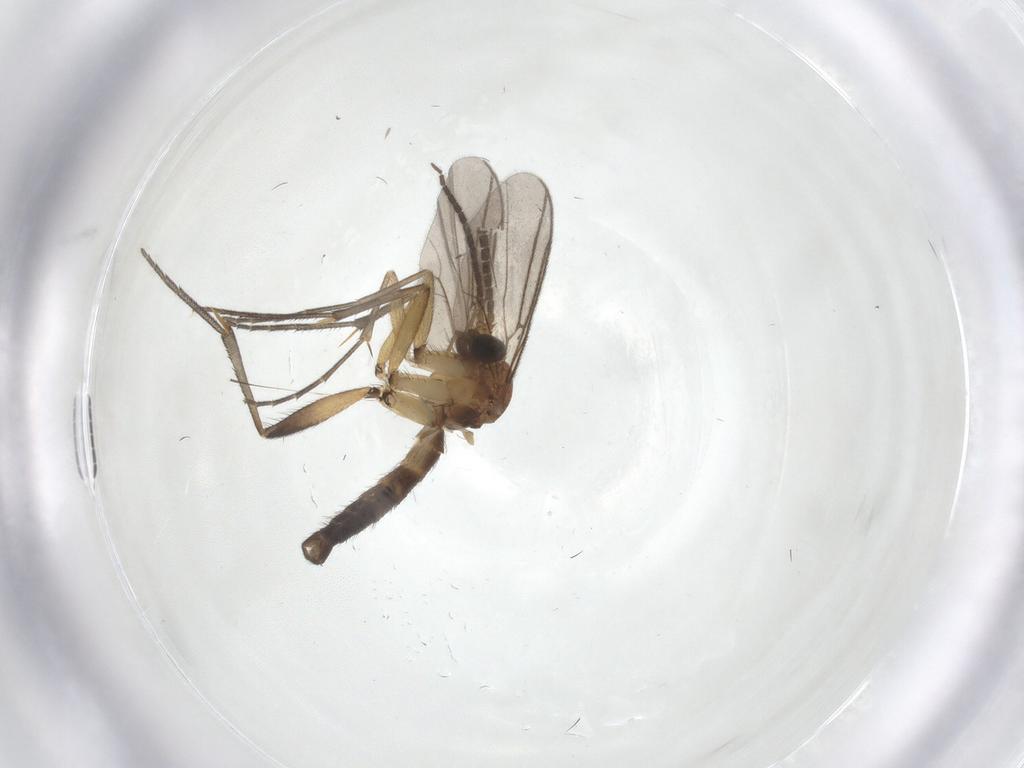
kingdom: Animalia
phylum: Arthropoda
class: Insecta
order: Diptera
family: Mycetophilidae
